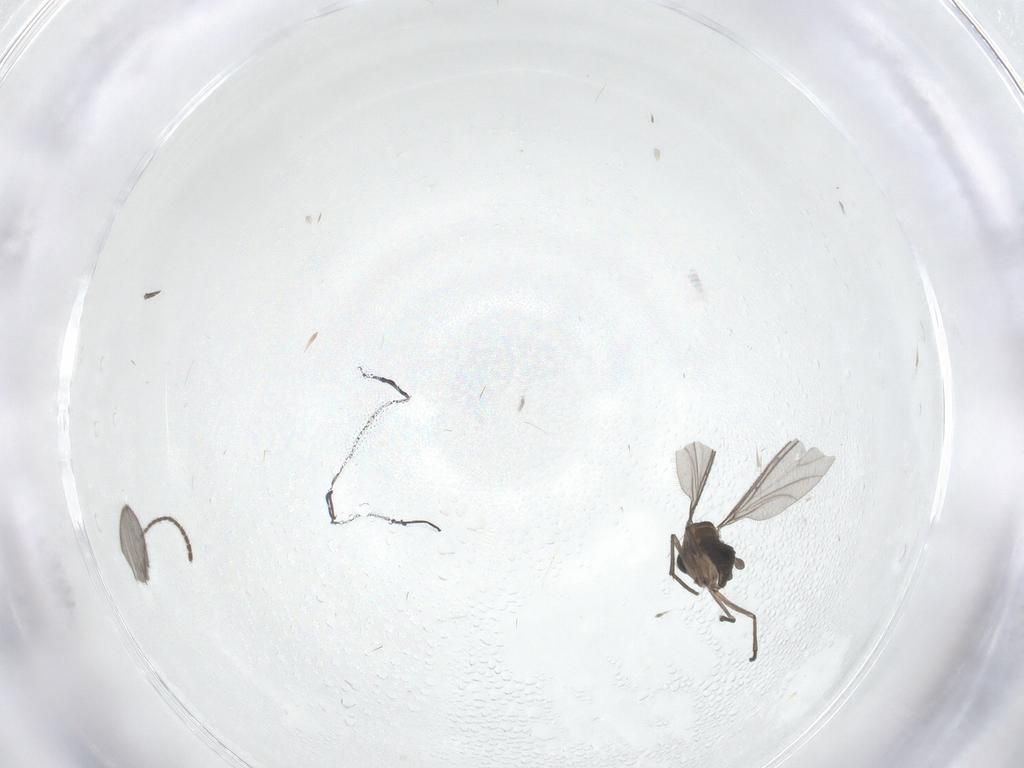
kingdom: Animalia
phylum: Arthropoda
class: Insecta
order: Diptera
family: Sciaridae
